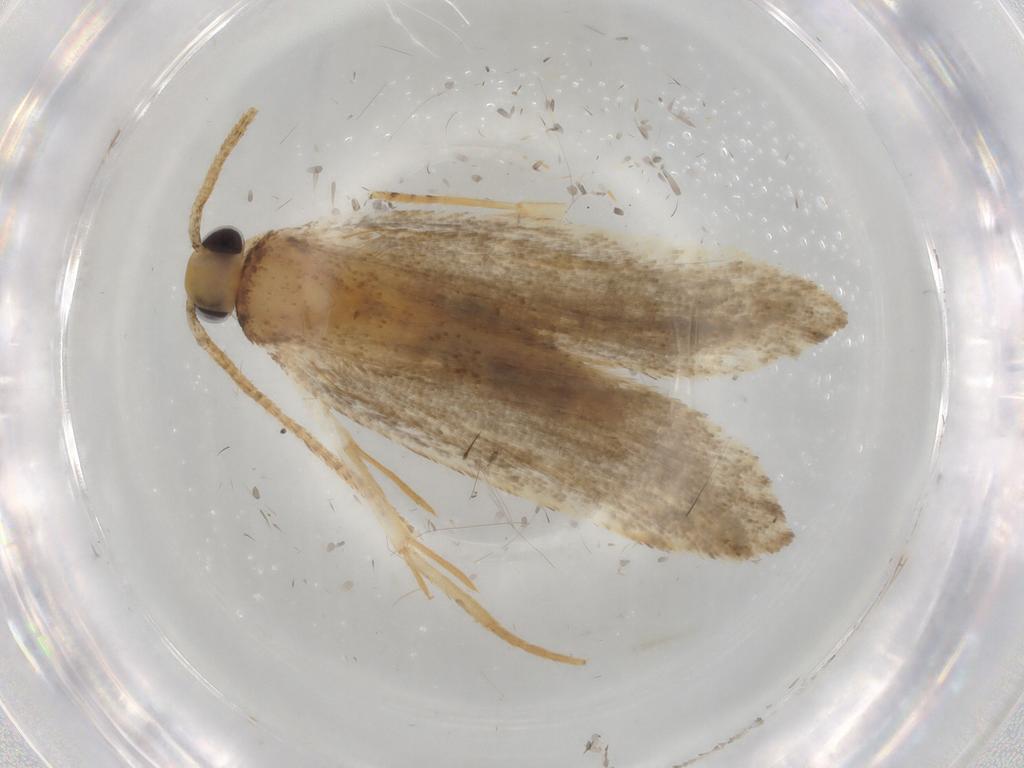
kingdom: Animalia
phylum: Arthropoda
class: Insecta
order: Lepidoptera
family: Autostichidae
